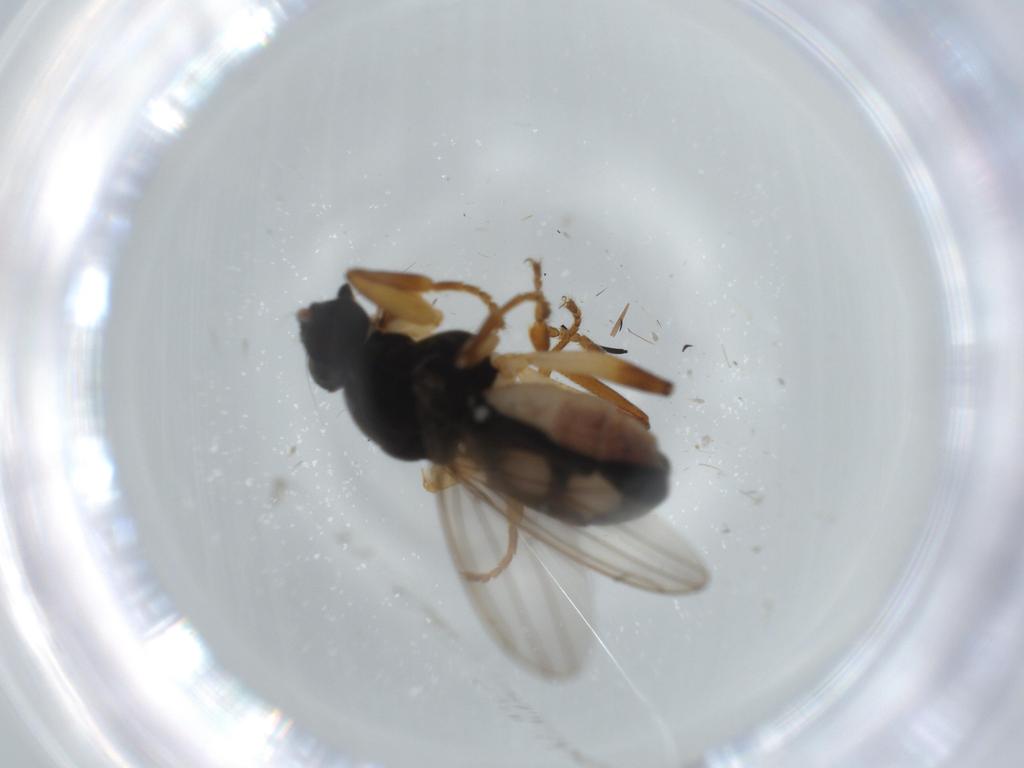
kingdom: Animalia
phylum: Arthropoda
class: Insecta
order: Diptera
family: Sphaeroceridae
